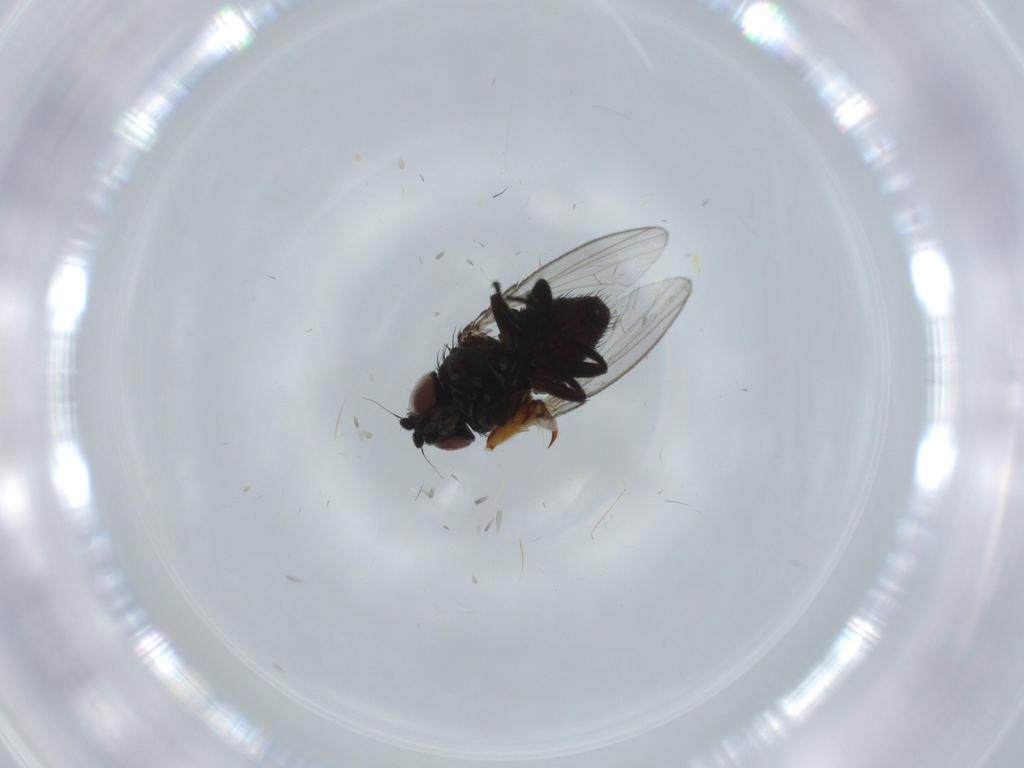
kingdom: Animalia
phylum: Arthropoda
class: Insecta
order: Diptera
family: Milichiidae
